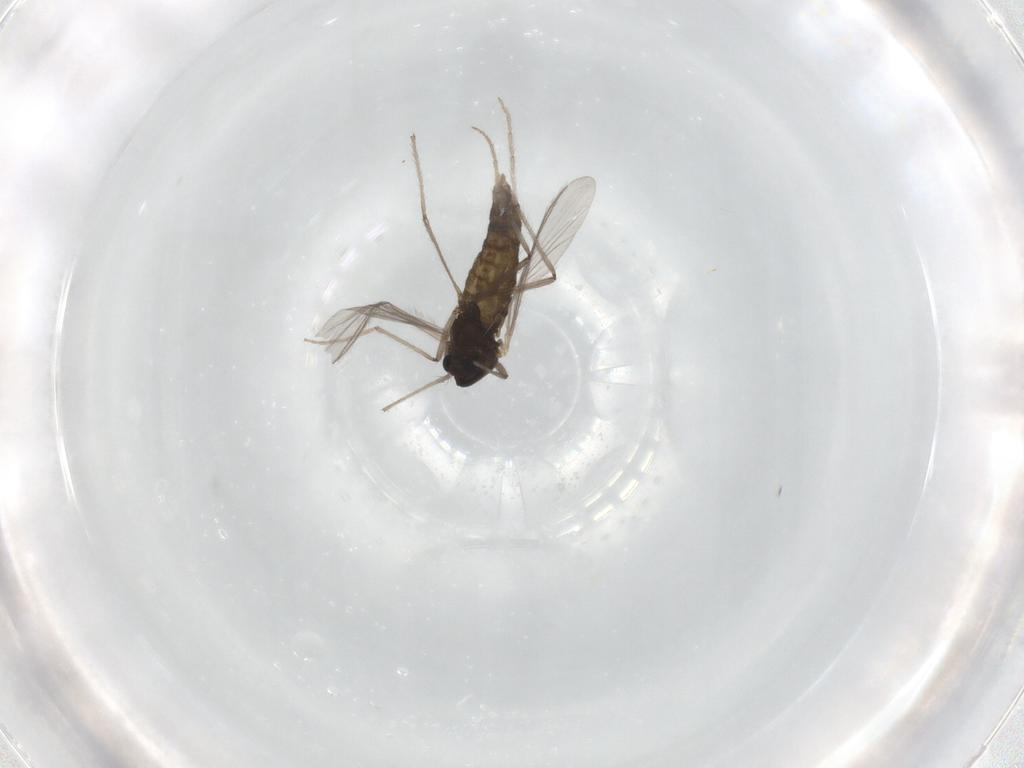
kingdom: Animalia
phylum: Arthropoda
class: Insecta
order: Diptera
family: Chironomidae
